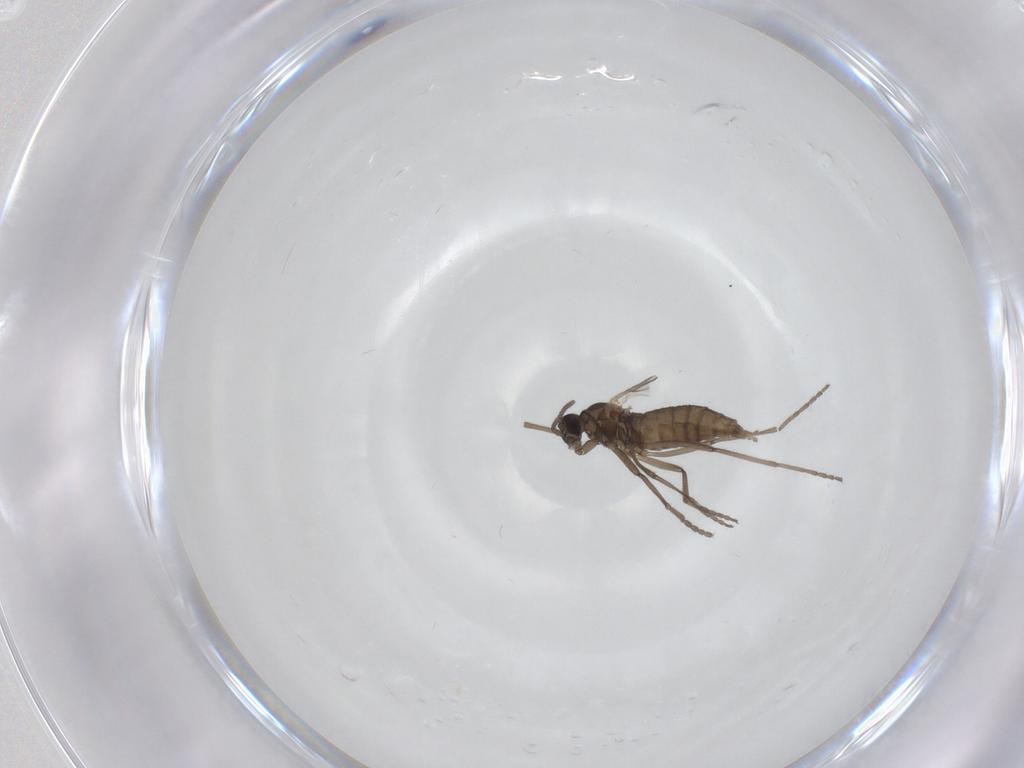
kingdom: Animalia
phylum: Arthropoda
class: Insecta
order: Diptera
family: Cecidomyiidae
